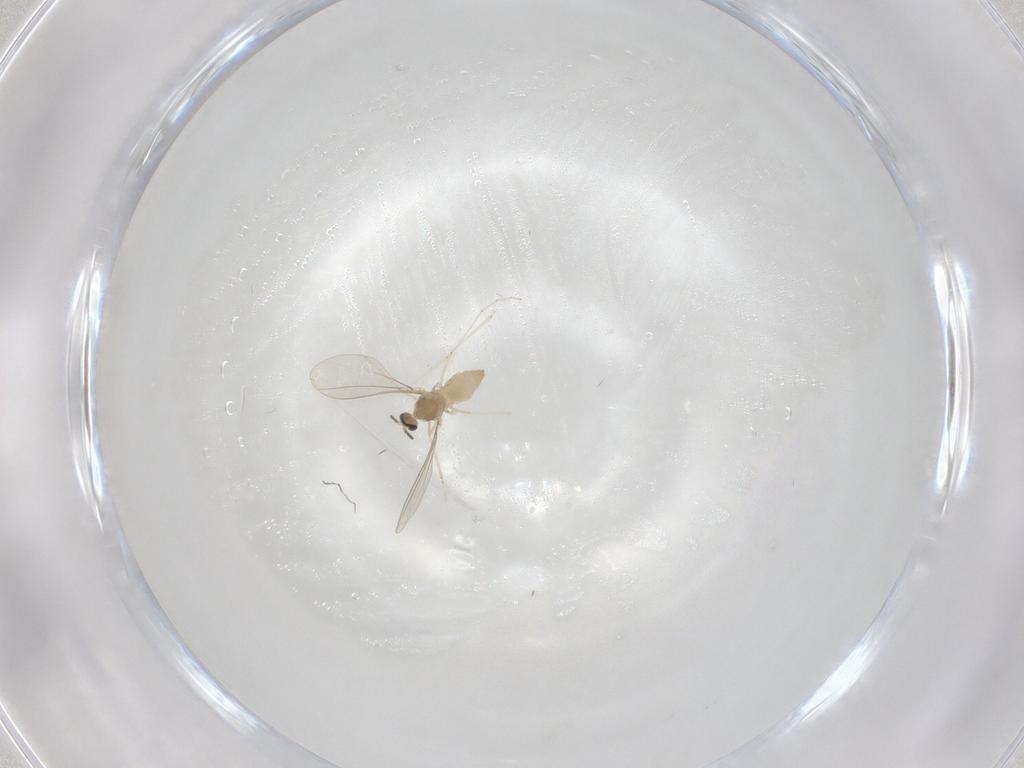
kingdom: Animalia
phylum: Arthropoda
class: Insecta
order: Diptera
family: Cecidomyiidae
